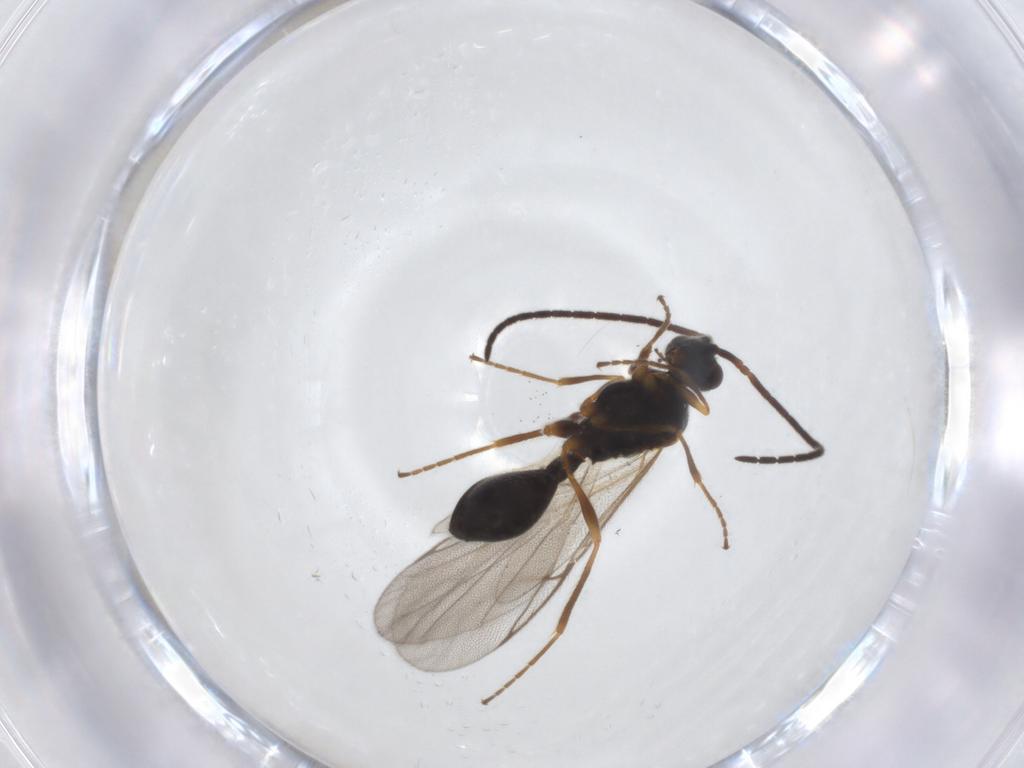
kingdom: Animalia
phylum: Arthropoda
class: Insecta
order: Hymenoptera
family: Diapriidae
